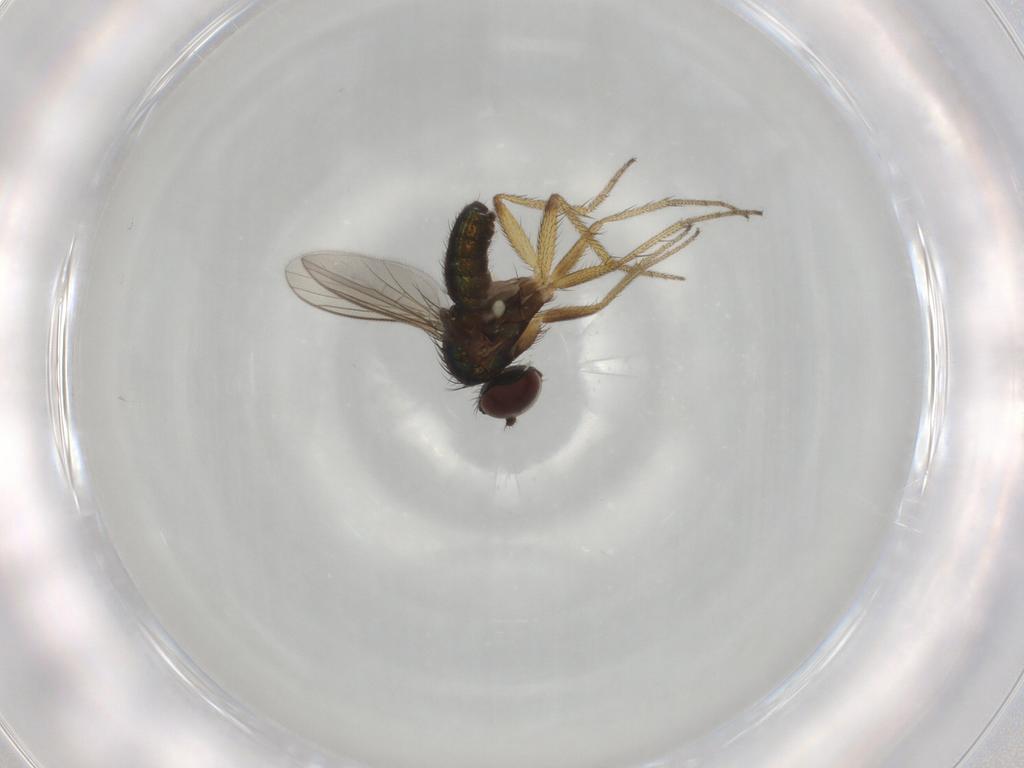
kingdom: Animalia
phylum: Arthropoda
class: Insecta
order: Diptera
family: Dolichopodidae
